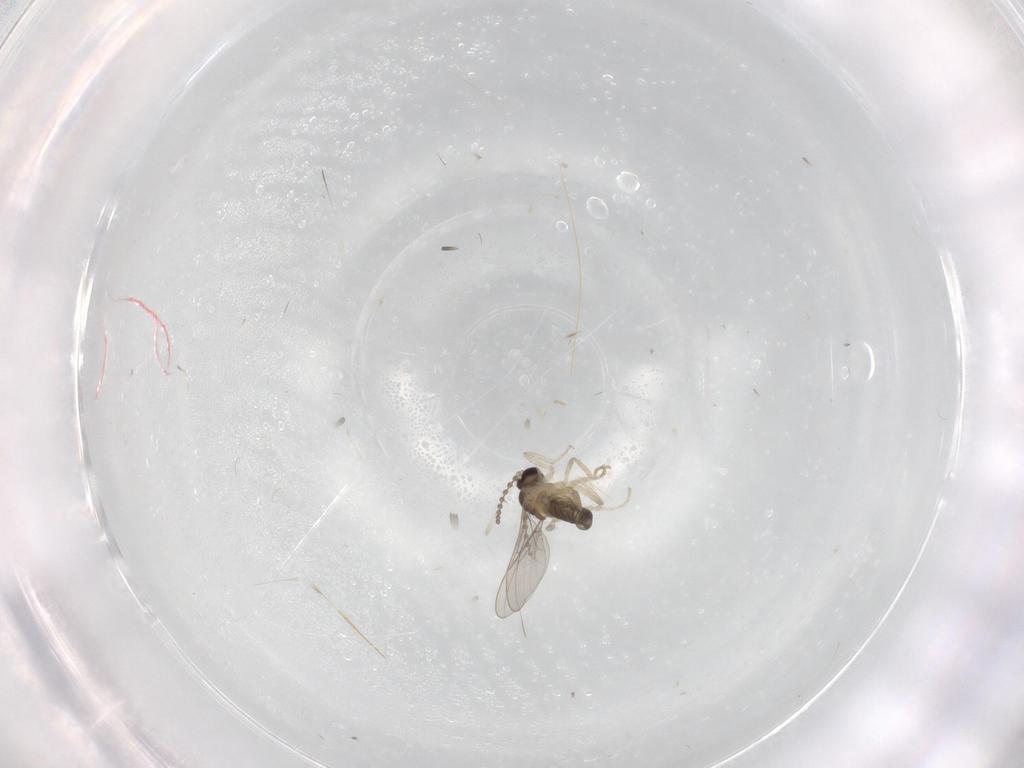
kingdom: Animalia
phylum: Arthropoda
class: Insecta
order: Diptera
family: Cecidomyiidae
